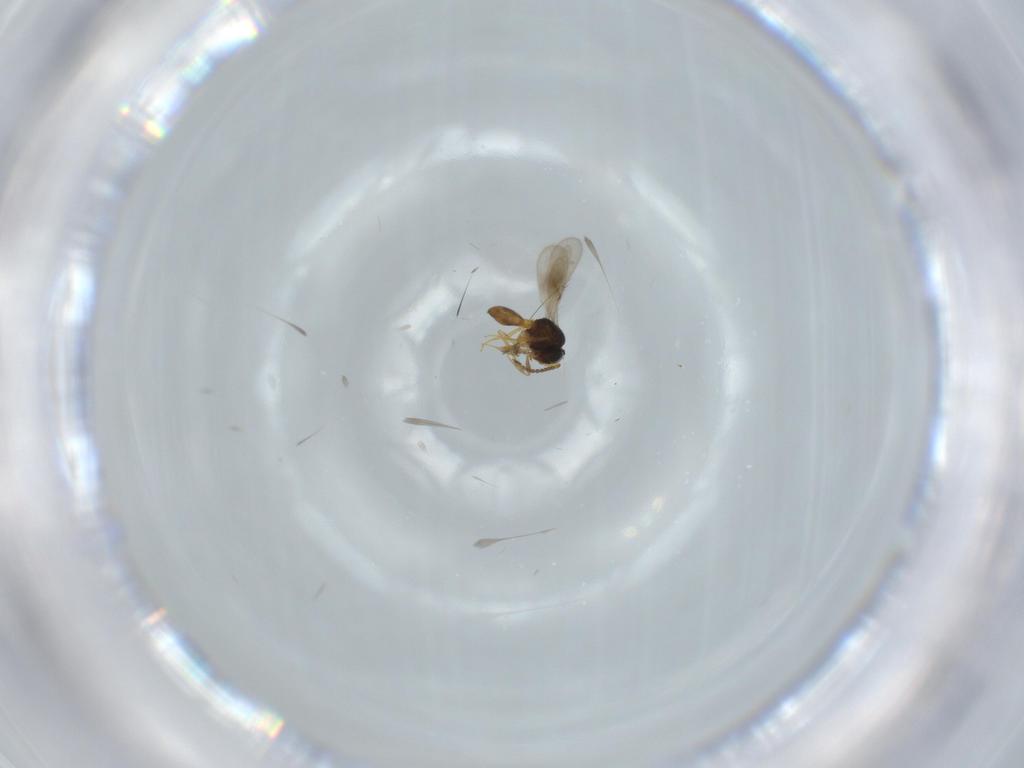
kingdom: Animalia
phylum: Arthropoda
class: Insecta
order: Hymenoptera
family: Scelionidae
